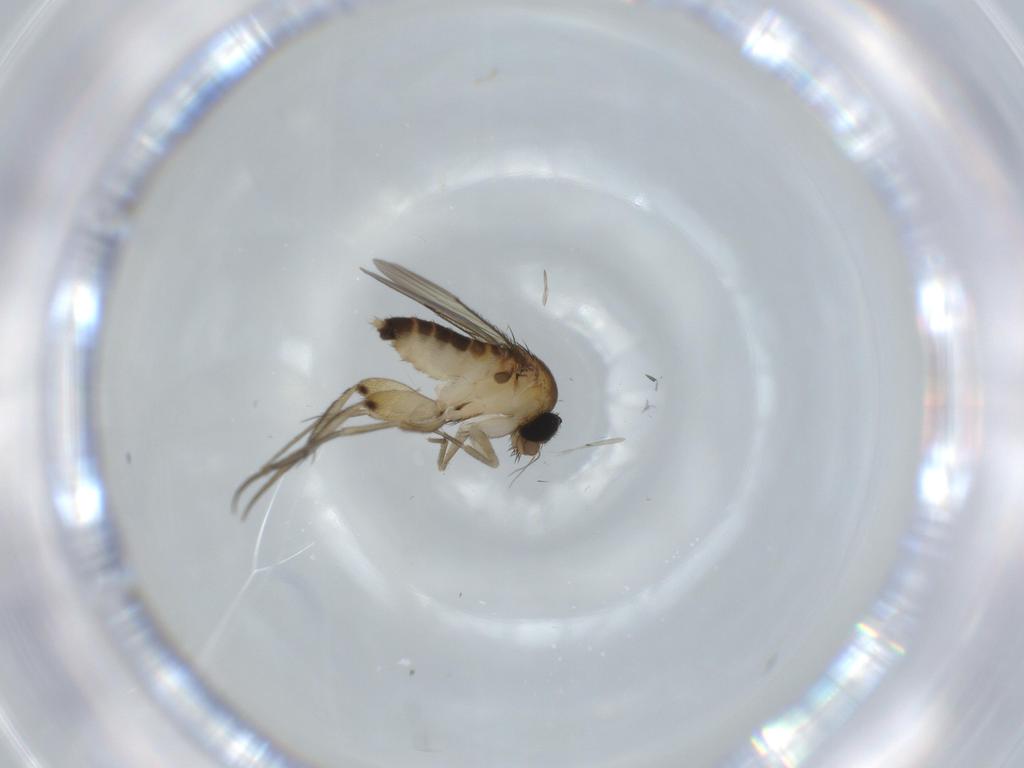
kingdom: Animalia
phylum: Arthropoda
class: Insecta
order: Diptera
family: Phoridae
